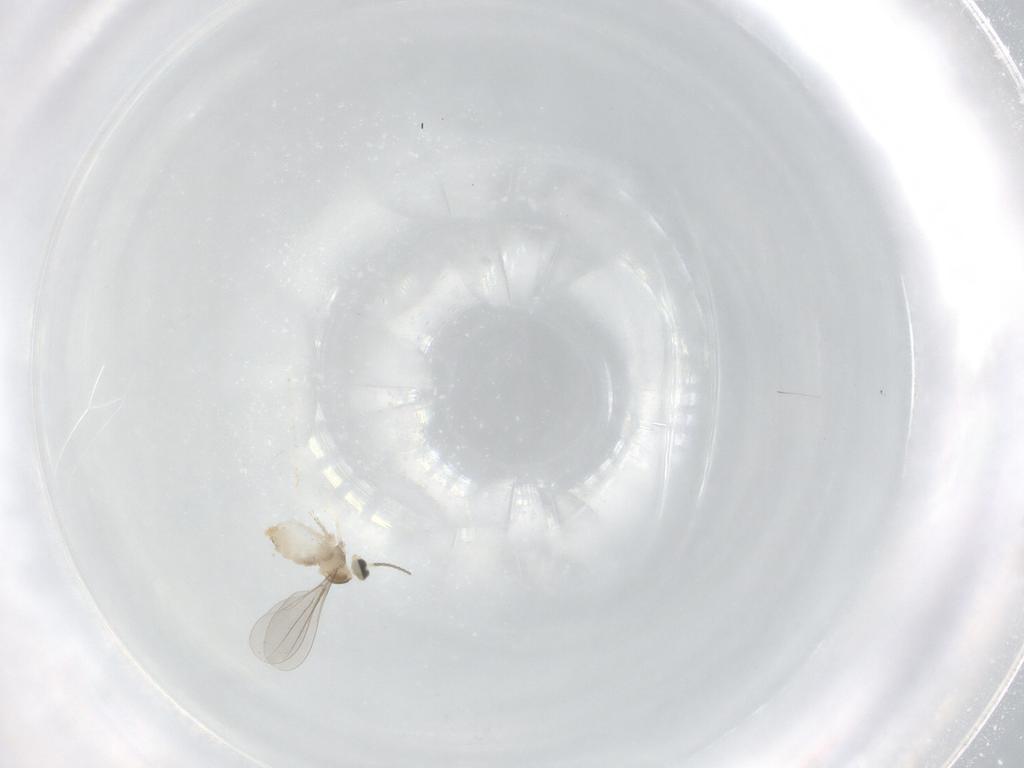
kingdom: Animalia
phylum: Arthropoda
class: Insecta
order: Diptera
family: Cecidomyiidae
